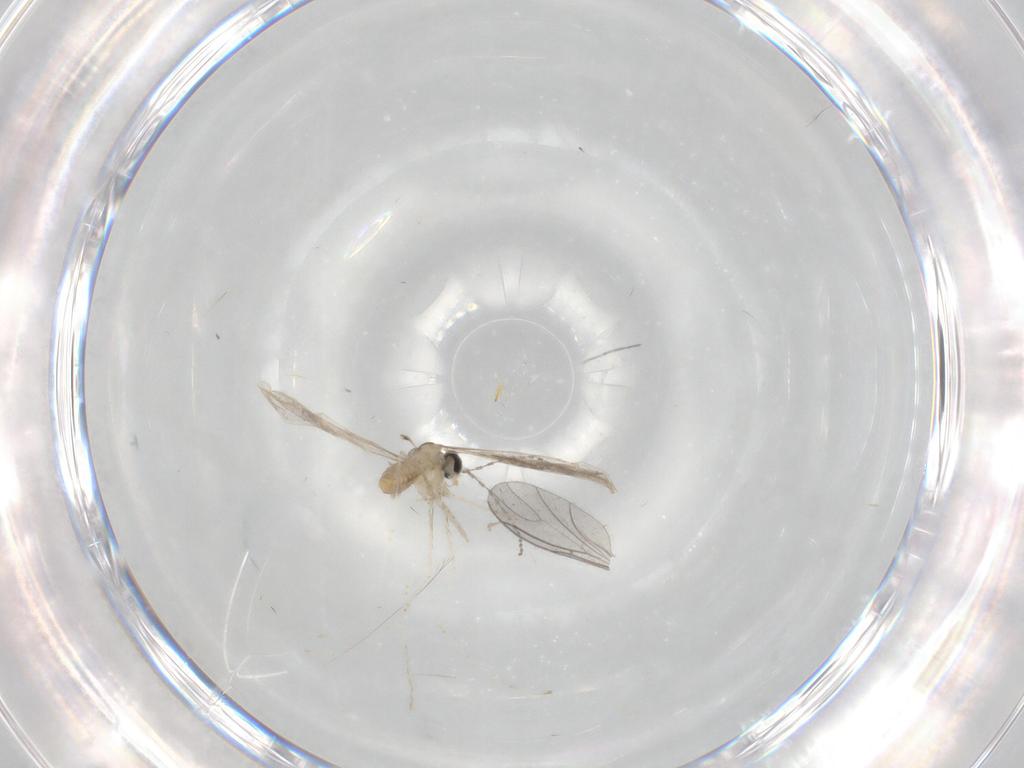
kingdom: Animalia
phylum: Arthropoda
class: Insecta
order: Diptera
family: Cecidomyiidae
